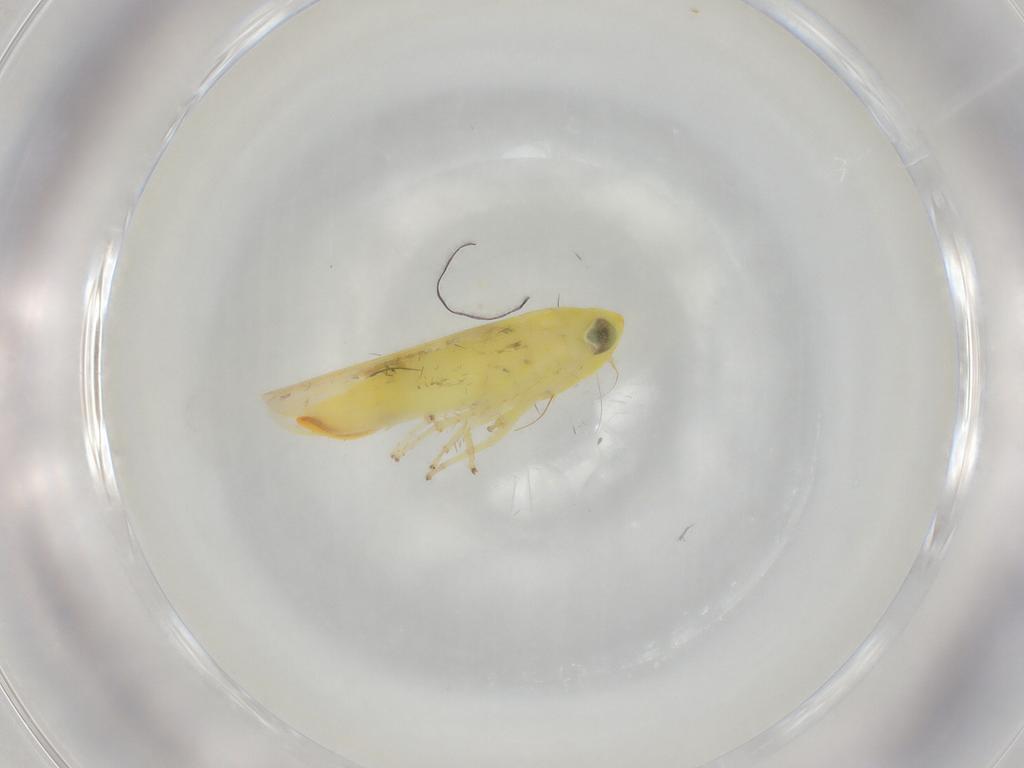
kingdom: Animalia
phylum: Arthropoda
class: Insecta
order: Hemiptera
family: Cicadellidae
